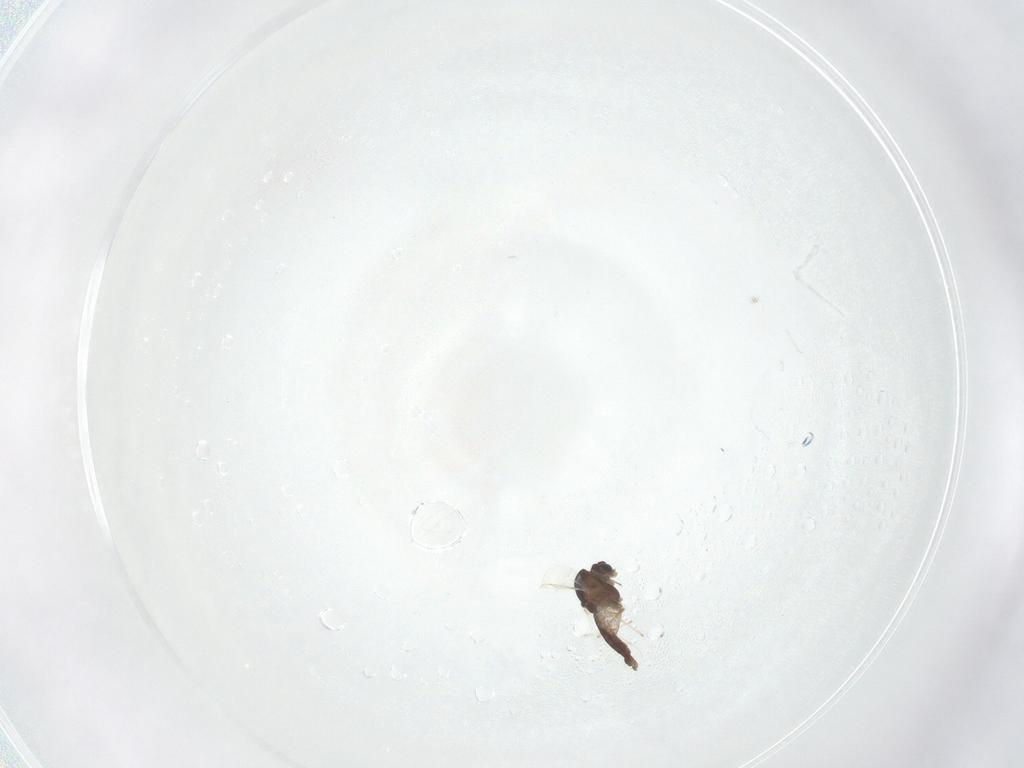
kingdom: Animalia
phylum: Arthropoda
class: Insecta
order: Diptera
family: Chironomidae
